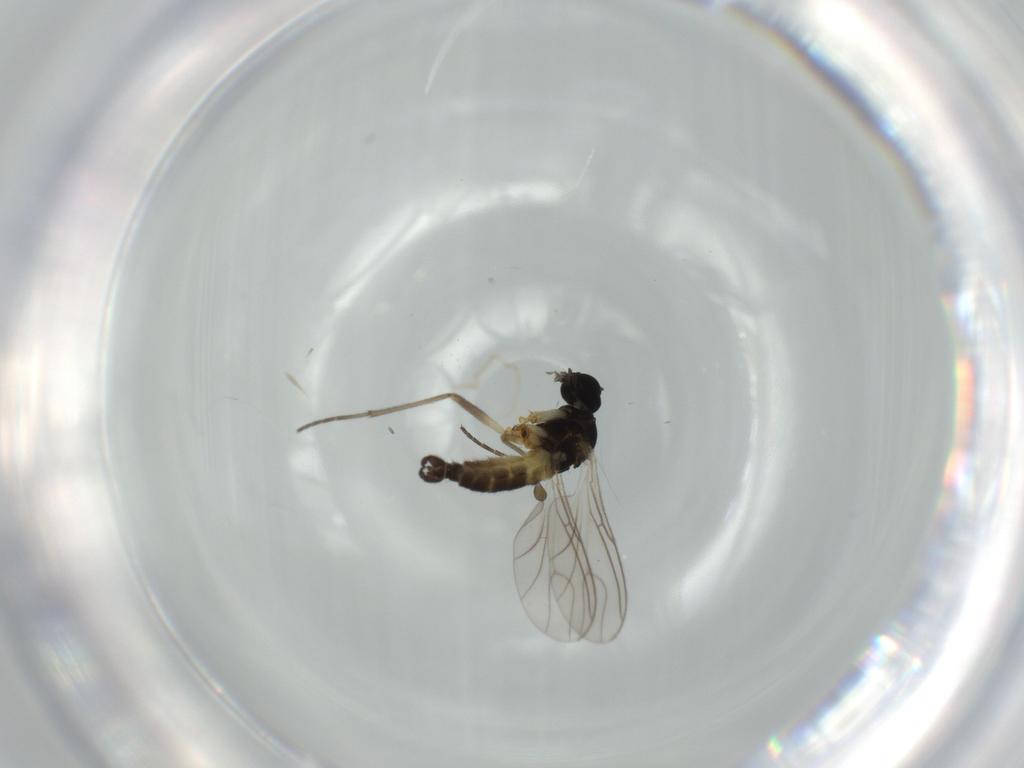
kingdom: Animalia
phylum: Arthropoda
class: Insecta
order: Diptera
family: Sciaridae
